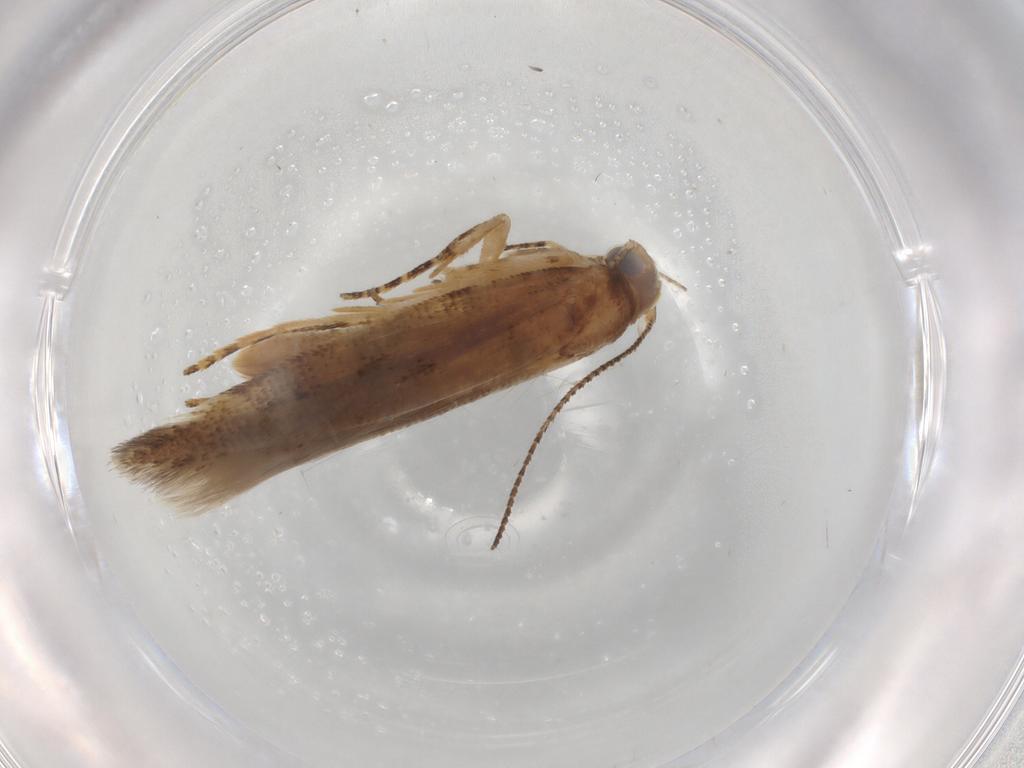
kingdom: Animalia
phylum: Arthropoda
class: Insecta
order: Lepidoptera
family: Gelechiidae
